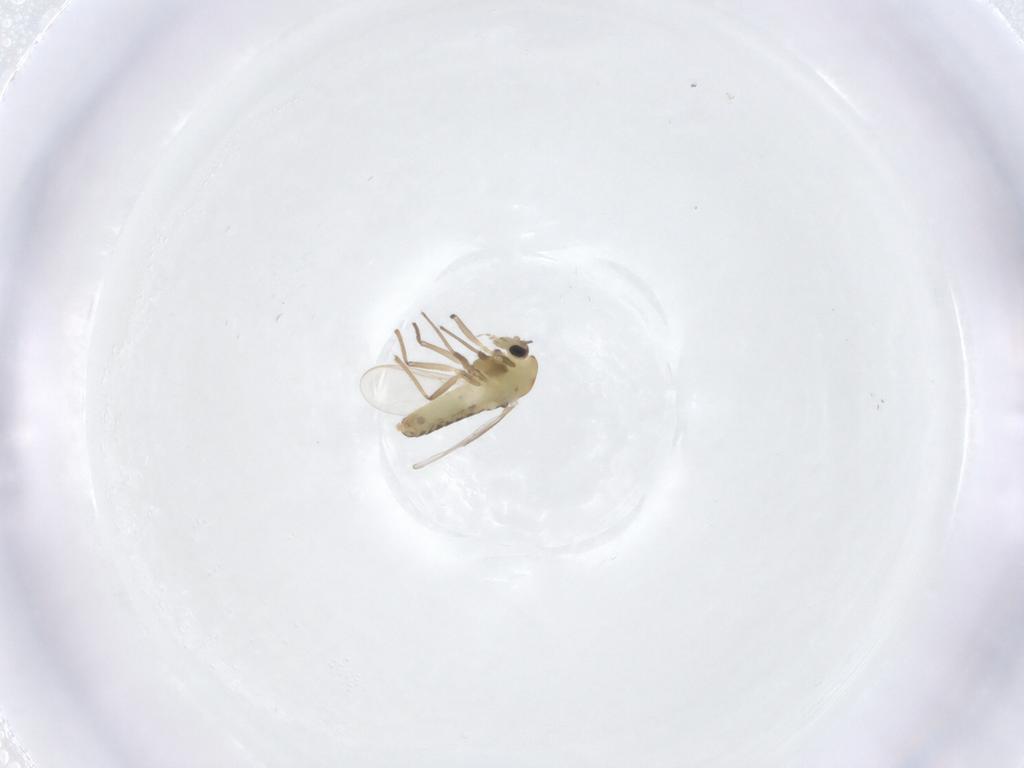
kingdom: Animalia
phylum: Arthropoda
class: Insecta
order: Diptera
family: Chironomidae
